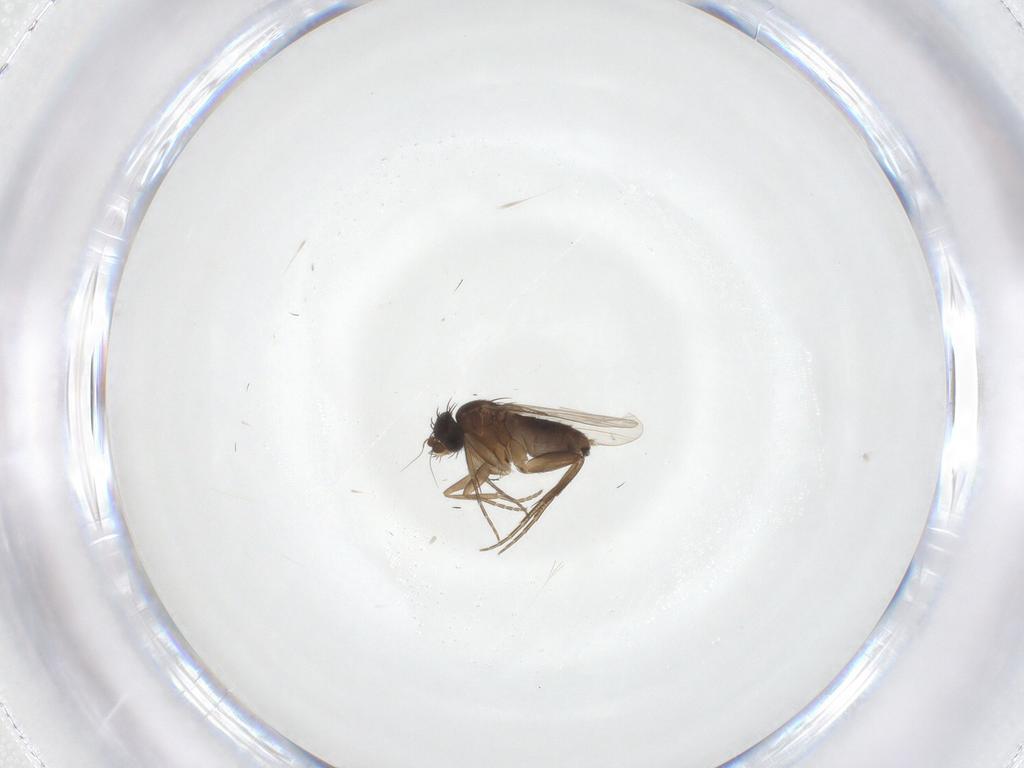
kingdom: Animalia
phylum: Arthropoda
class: Insecta
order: Diptera
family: Phoridae
